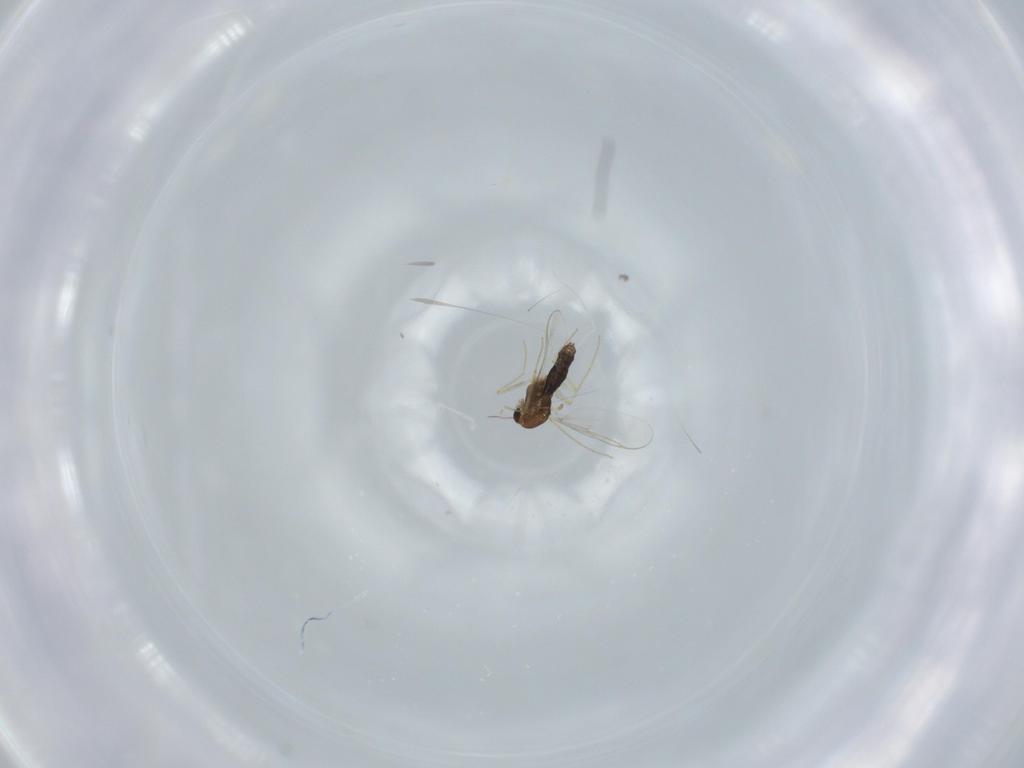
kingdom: Animalia
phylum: Arthropoda
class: Insecta
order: Diptera
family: Chironomidae
